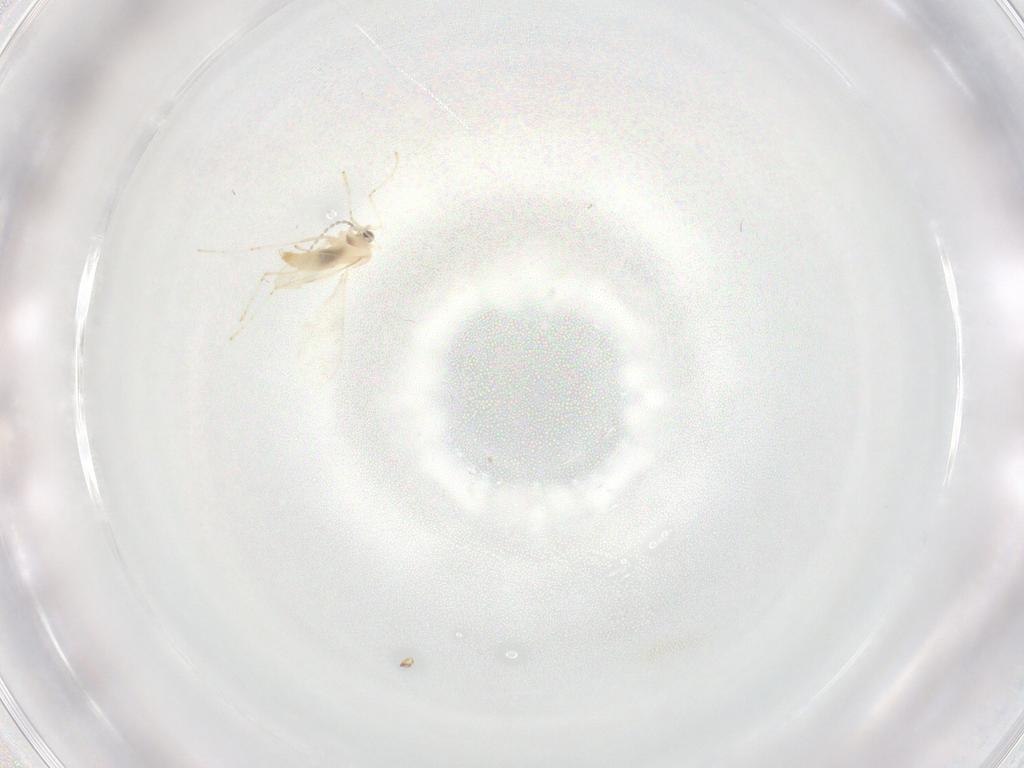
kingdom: Animalia
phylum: Arthropoda
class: Insecta
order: Diptera
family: Cecidomyiidae
